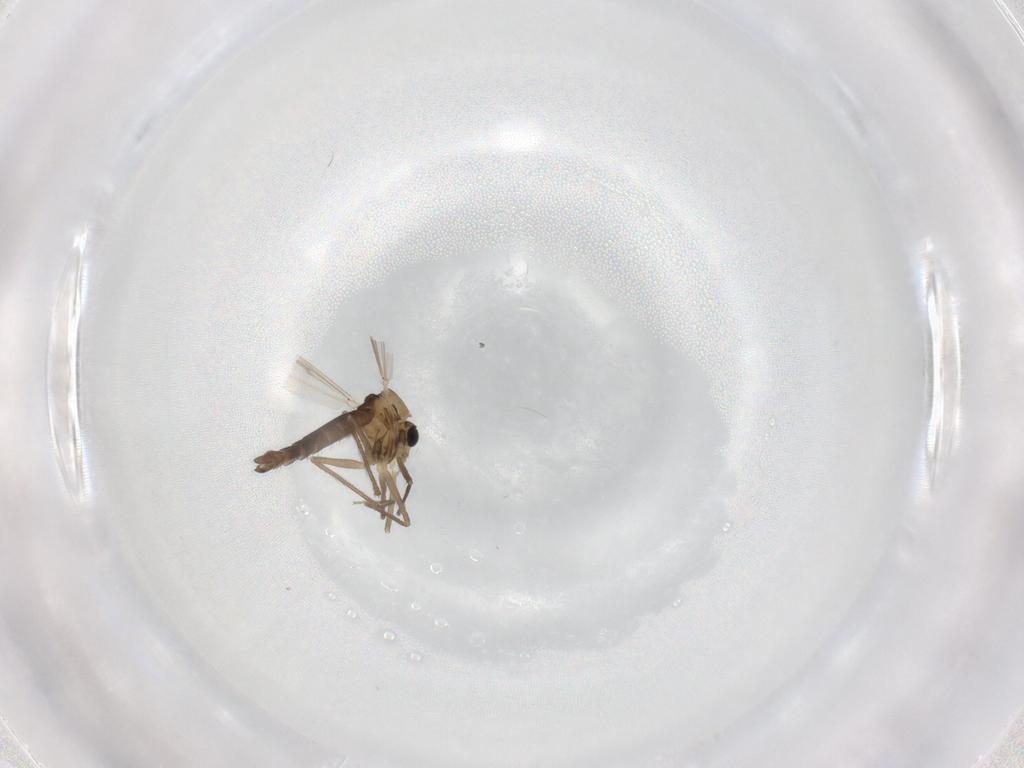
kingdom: Animalia
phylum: Arthropoda
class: Insecta
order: Diptera
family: Chironomidae
